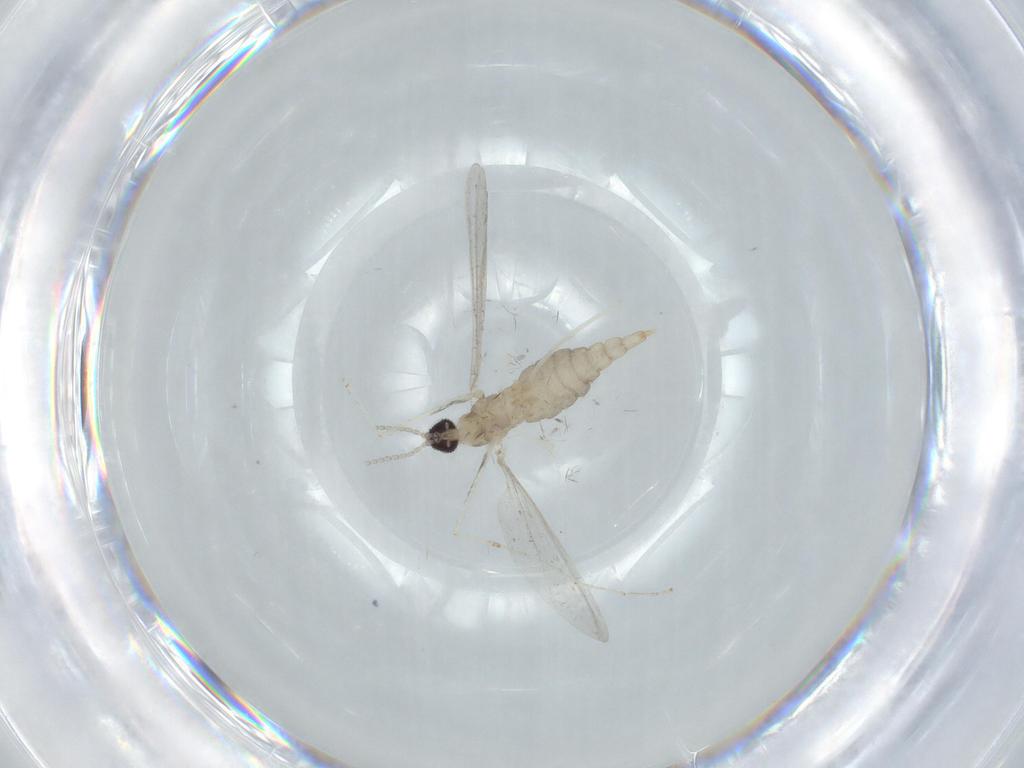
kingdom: Animalia
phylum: Arthropoda
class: Insecta
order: Diptera
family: Cecidomyiidae
